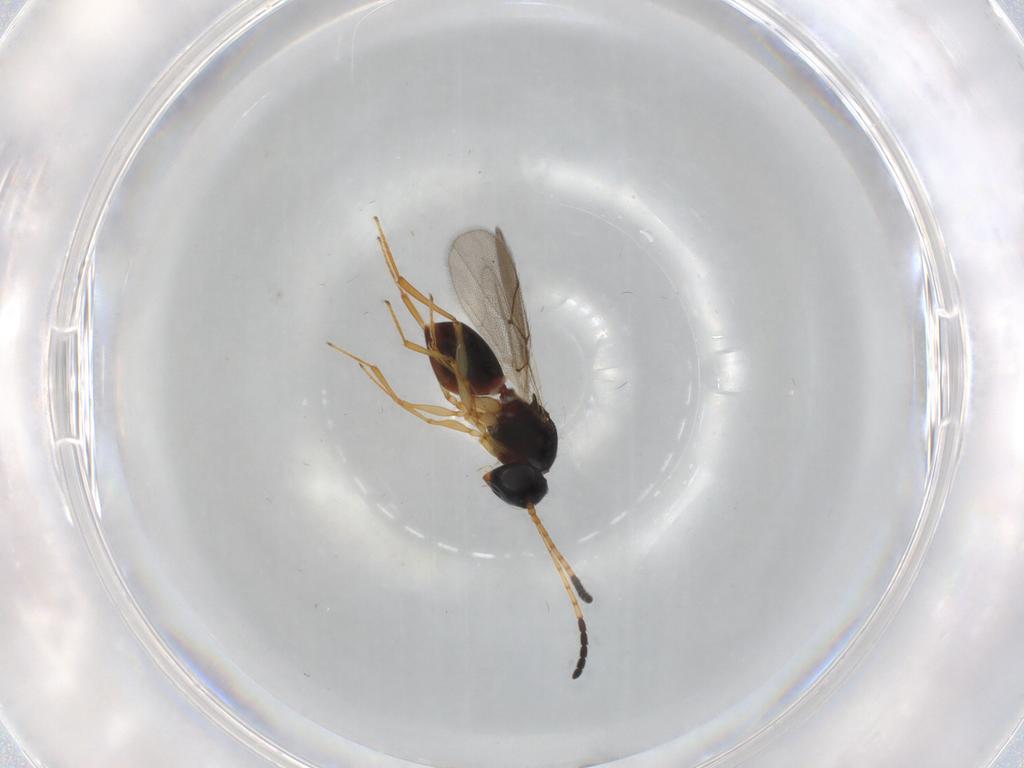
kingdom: Animalia
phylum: Arthropoda
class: Insecta
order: Hymenoptera
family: Figitidae
